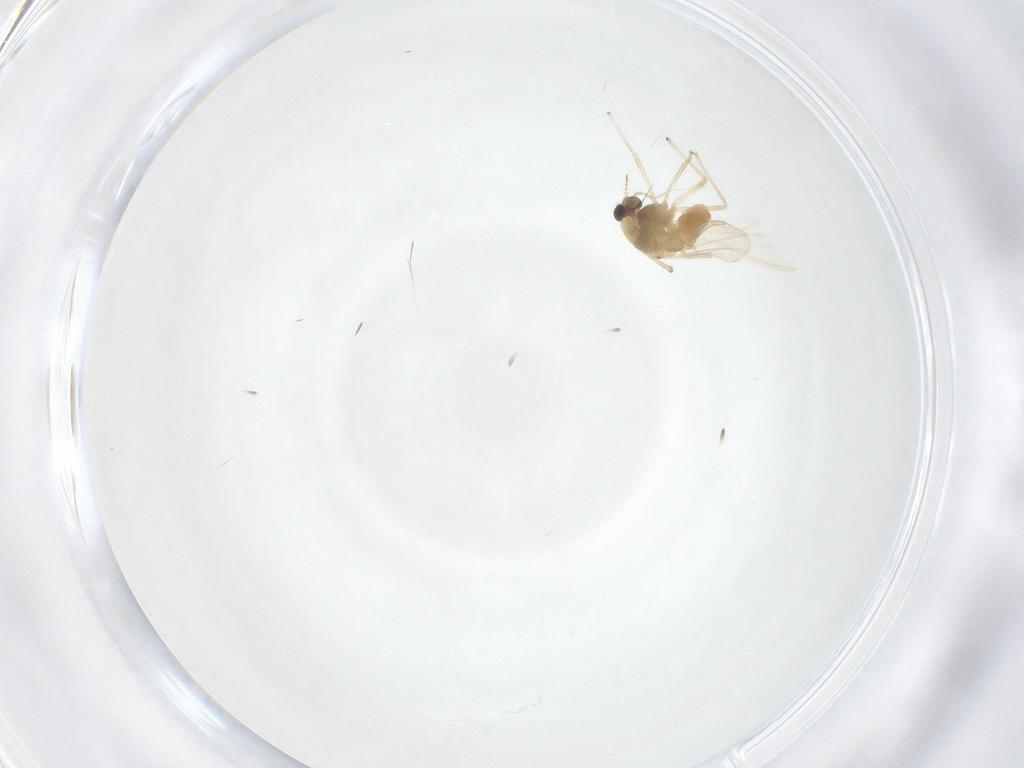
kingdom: Animalia
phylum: Arthropoda
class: Insecta
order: Diptera
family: Chironomidae
